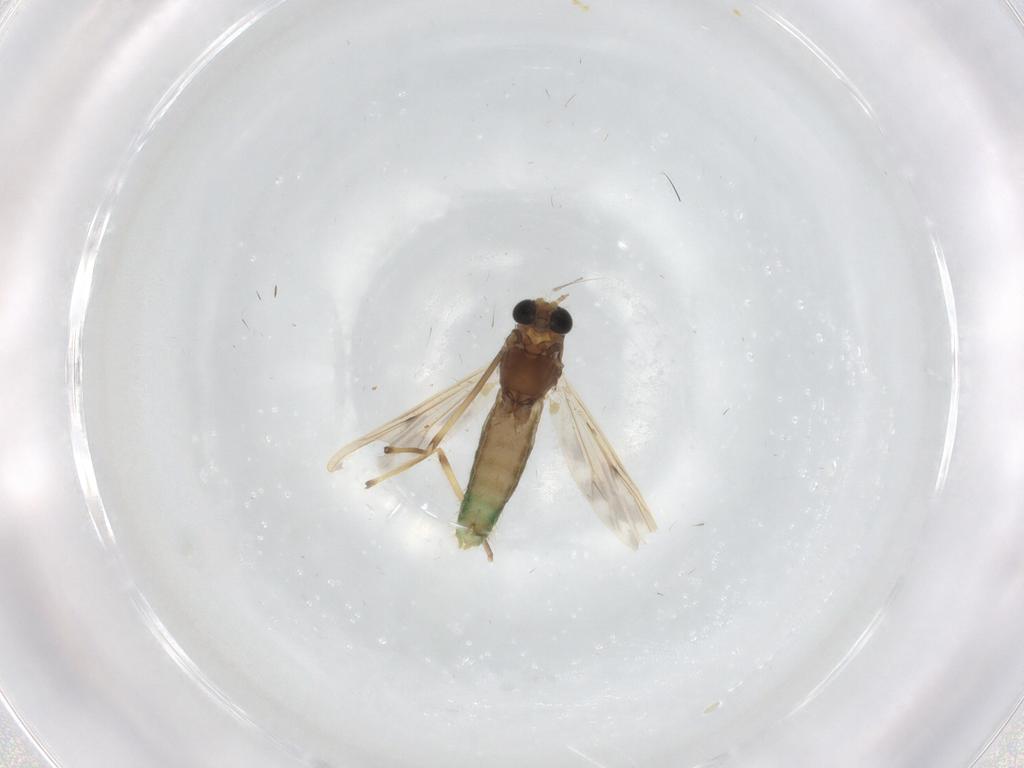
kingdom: Animalia
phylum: Arthropoda
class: Insecta
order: Diptera
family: Chironomidae
